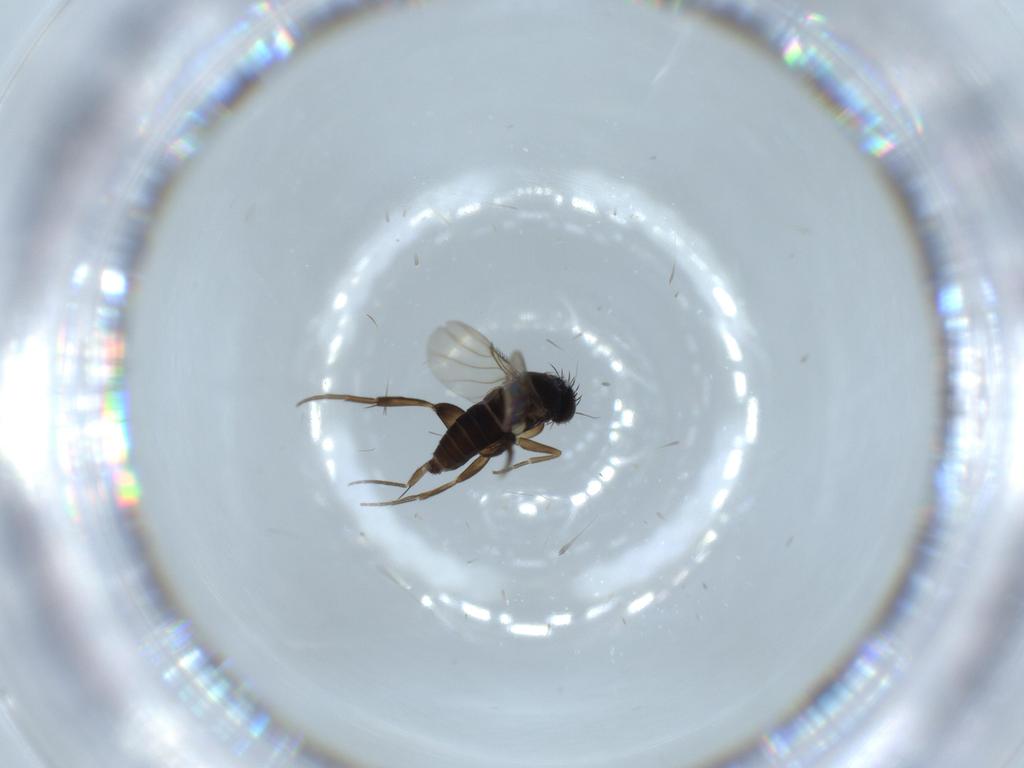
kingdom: Animalia
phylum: Arthropoda
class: Insecta
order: Diptera
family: Phoridae
